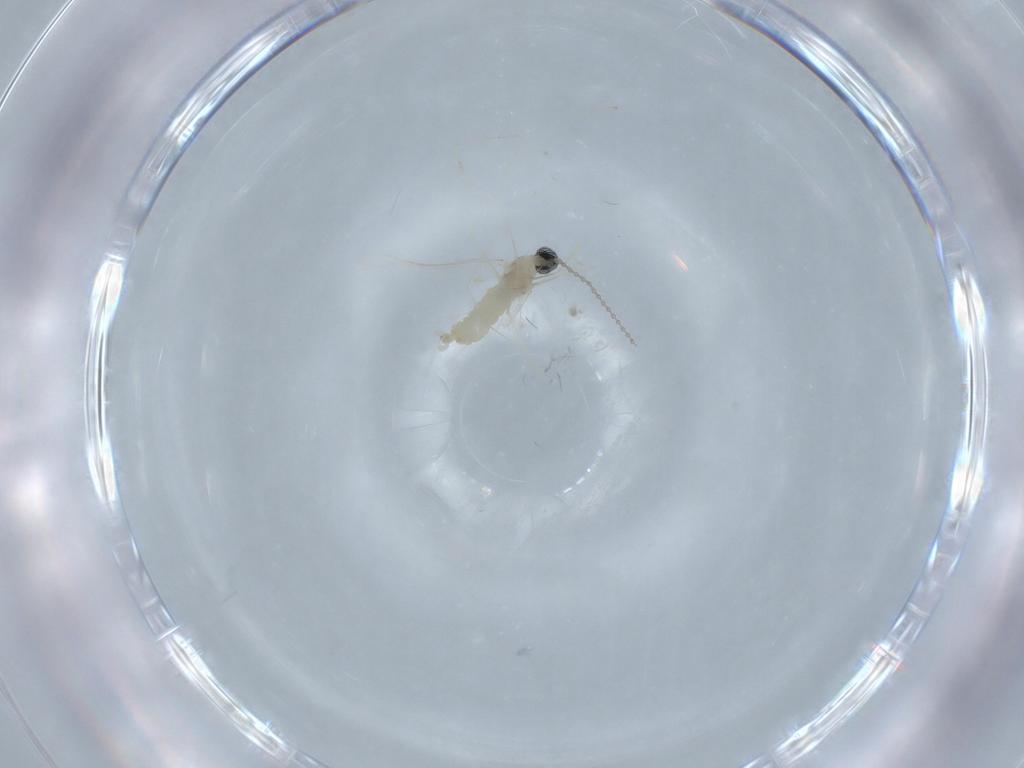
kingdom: Animalia
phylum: Arthropoda
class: Insecta
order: Diptera
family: Cecidomyiidae
